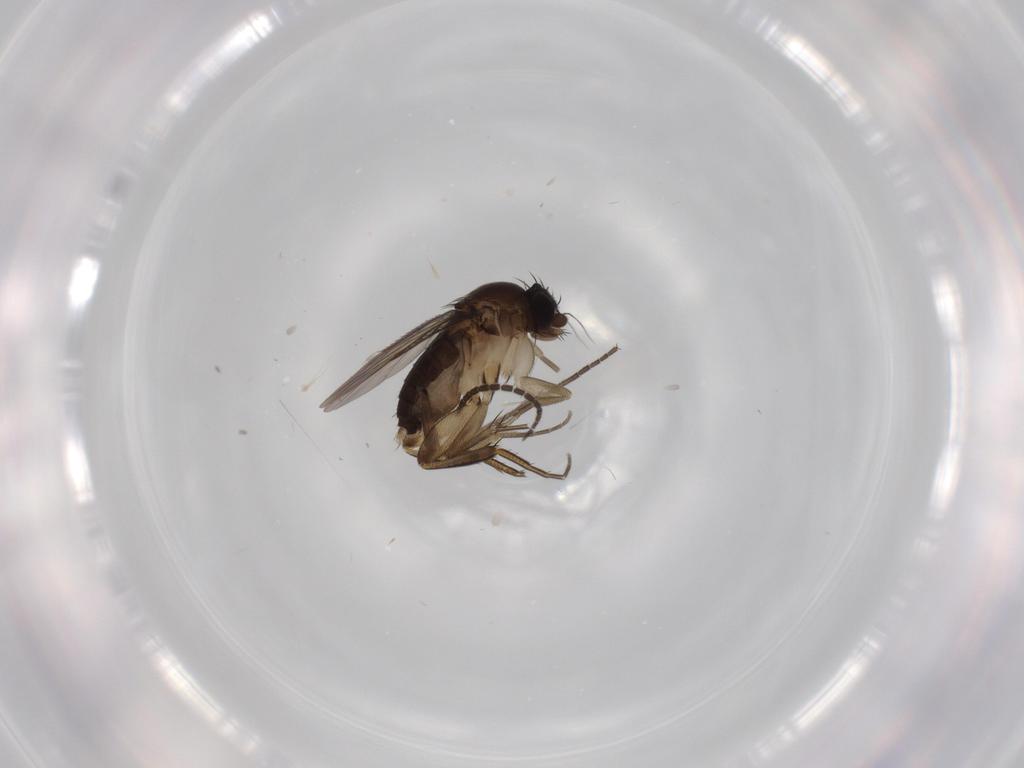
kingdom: Animalia
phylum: Arthropoda
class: Insecta
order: Diptera
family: Phoridae
